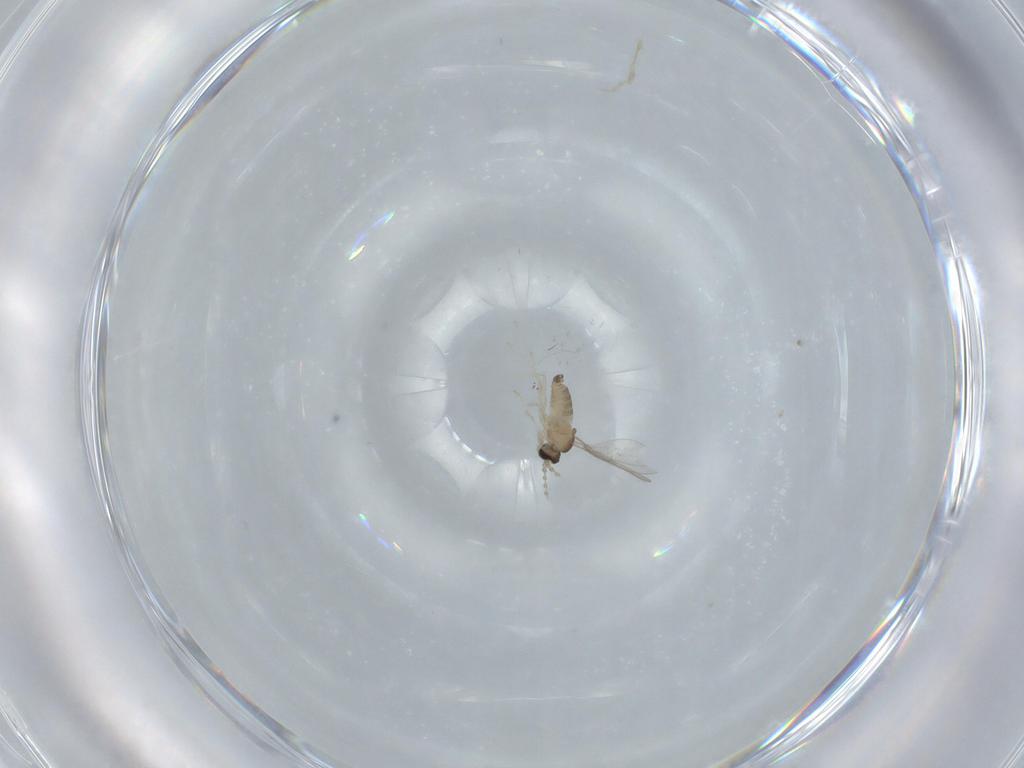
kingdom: Animalia
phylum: Arthropoda
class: Insecta
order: Diptera
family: Cecidomyiidae
